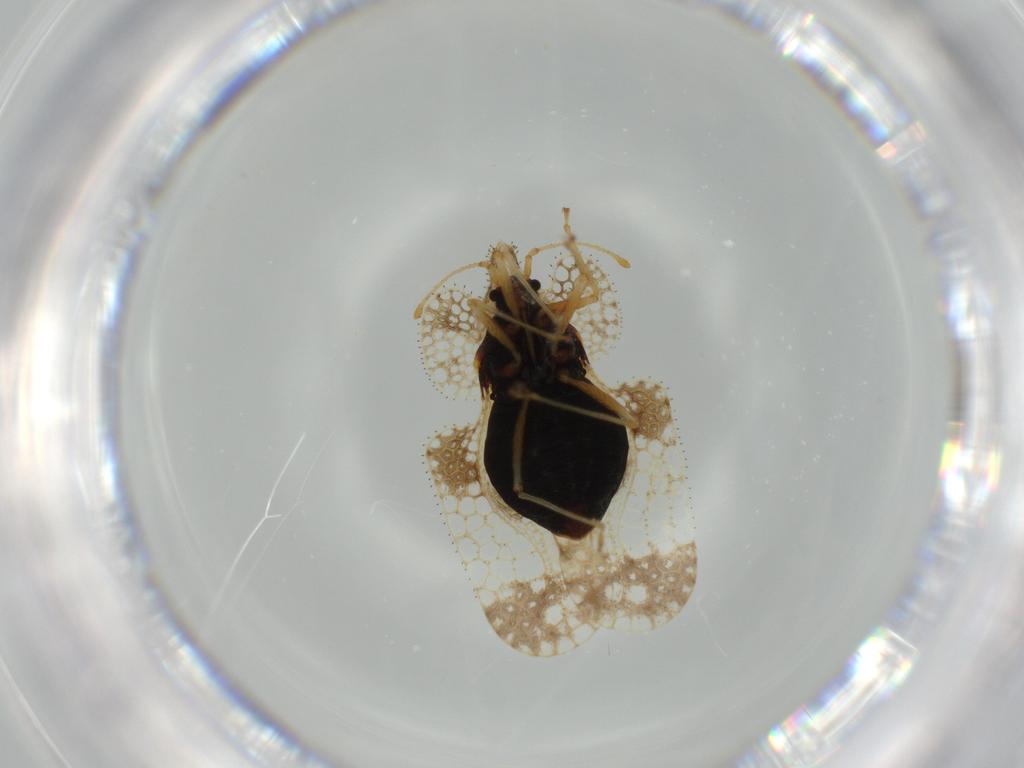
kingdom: Animalia
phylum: Arthropoda
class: Insecta
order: Hemiptera
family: Tingidae
